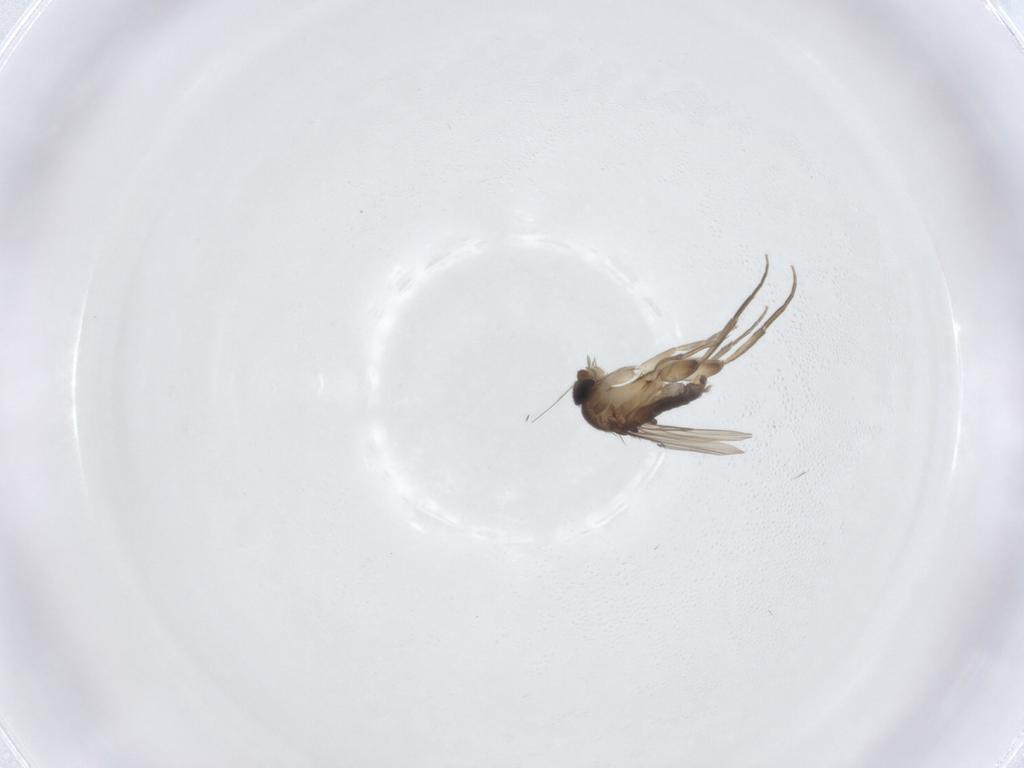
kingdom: Animalia
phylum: Arthropoda
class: Insecta
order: Diptera
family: Phoridae
